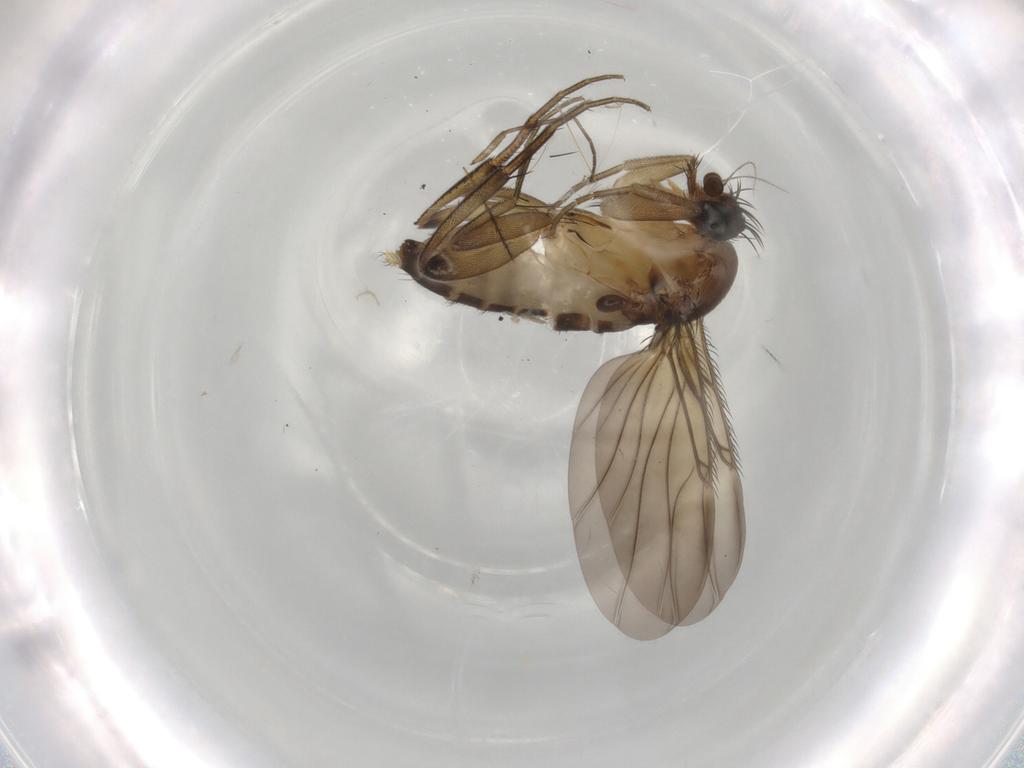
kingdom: Animalia
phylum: Arthropoda
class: Insecta
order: Diptera
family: Phoridae
